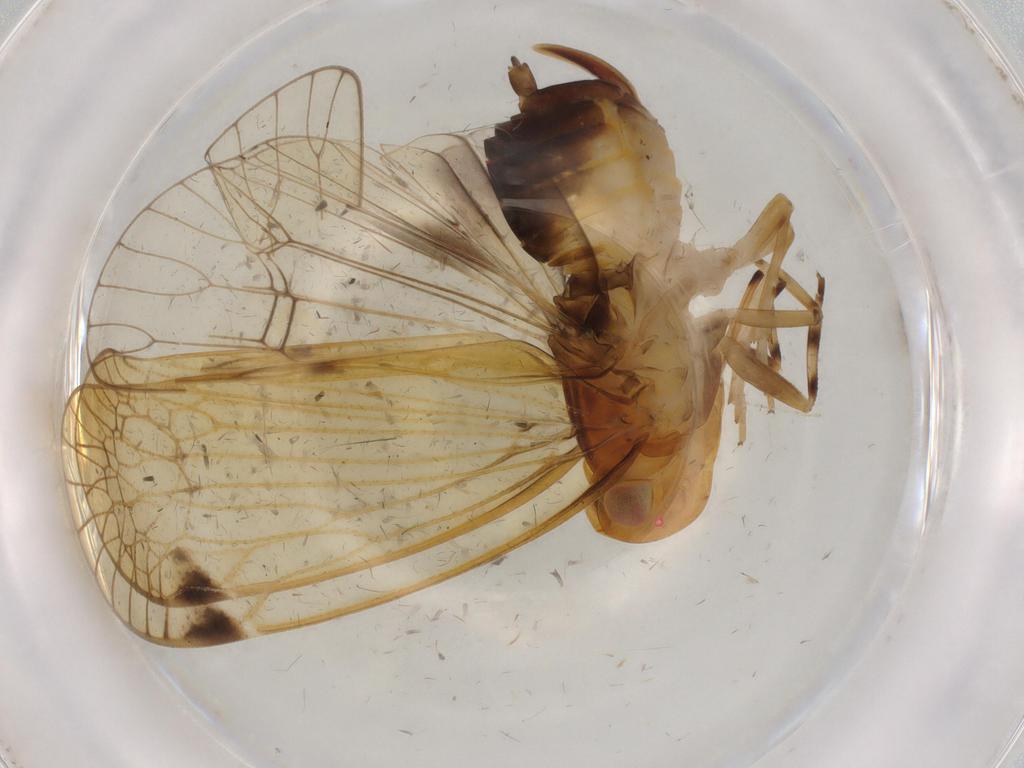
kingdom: Animalia
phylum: Arthropoda
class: Insecta
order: Hemiptera
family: Cixiidae
